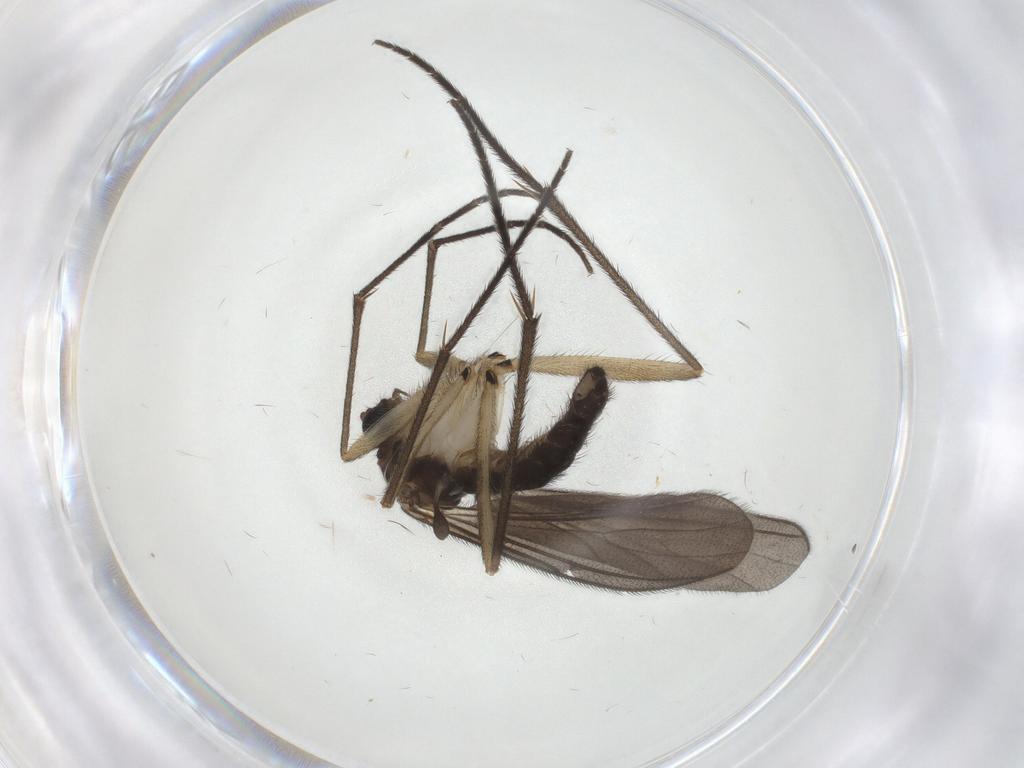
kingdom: Animalia
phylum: Arthropoda
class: Insecta
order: Diptera
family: Sciaridae
